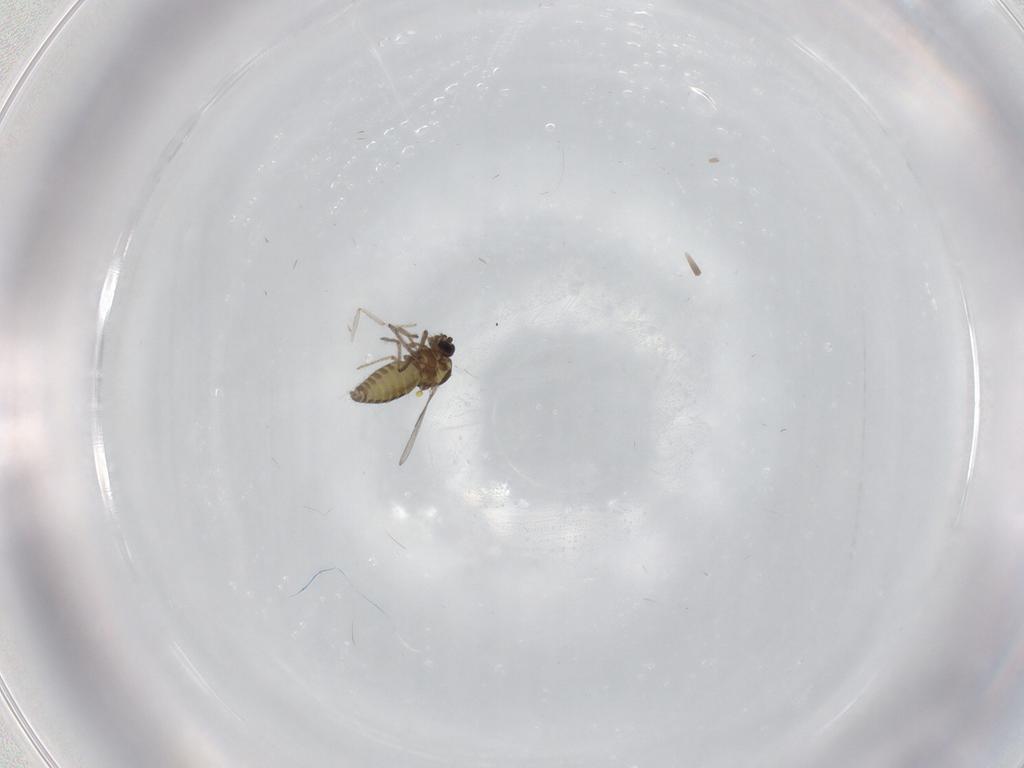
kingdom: Animalia
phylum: Arthropoda
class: Insecta
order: Diptera
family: Ceratopogonidae
